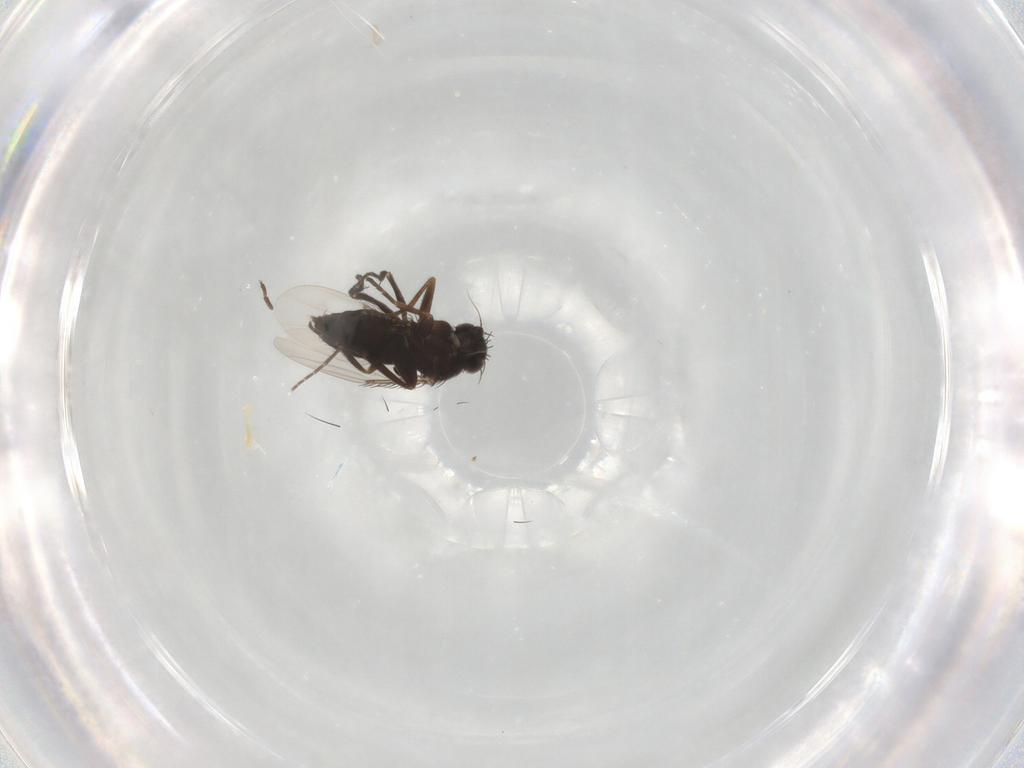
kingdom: Animalia
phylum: Arthropoda
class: Insecta
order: Diptera
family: Phoridae
